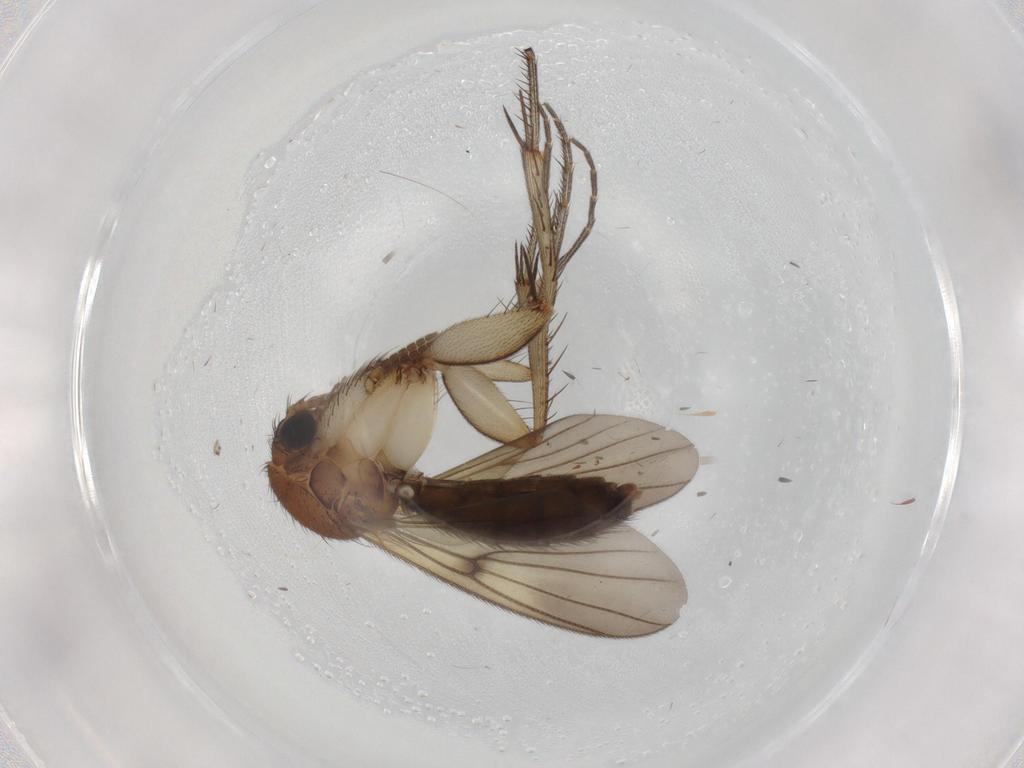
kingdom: Animalia
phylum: Arthropoda
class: Insecta
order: Diptera
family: Mycetophilidae
